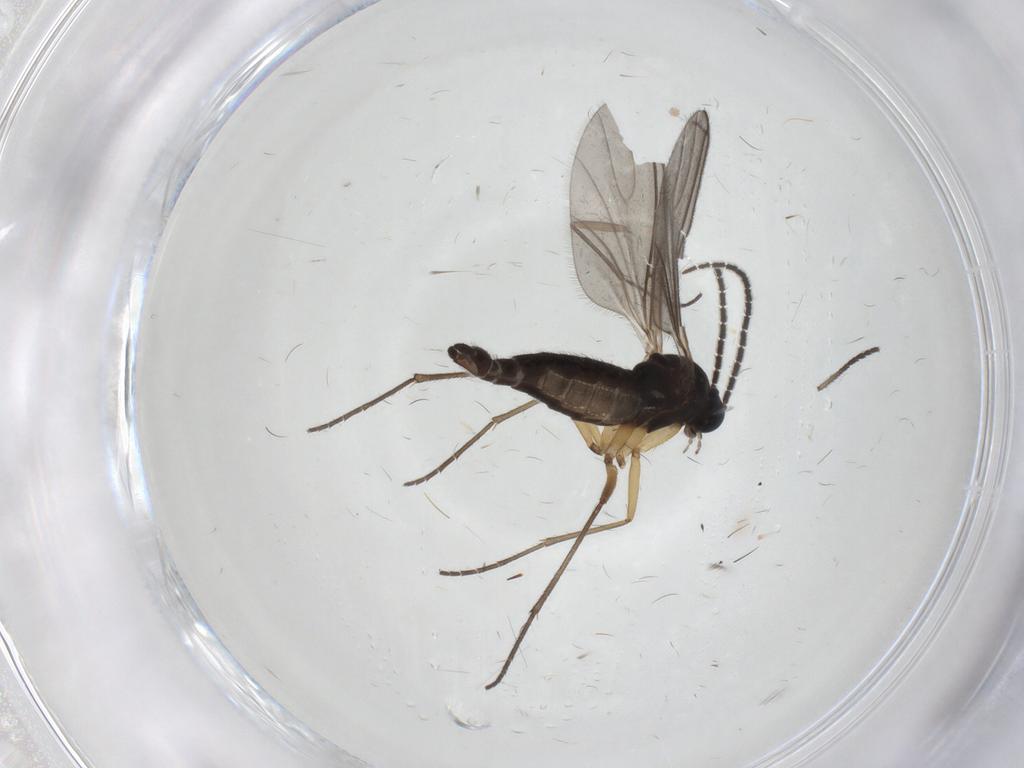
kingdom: Animalia
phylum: Arthropoda
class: Insecta
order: Diptera
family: Sciaridae
